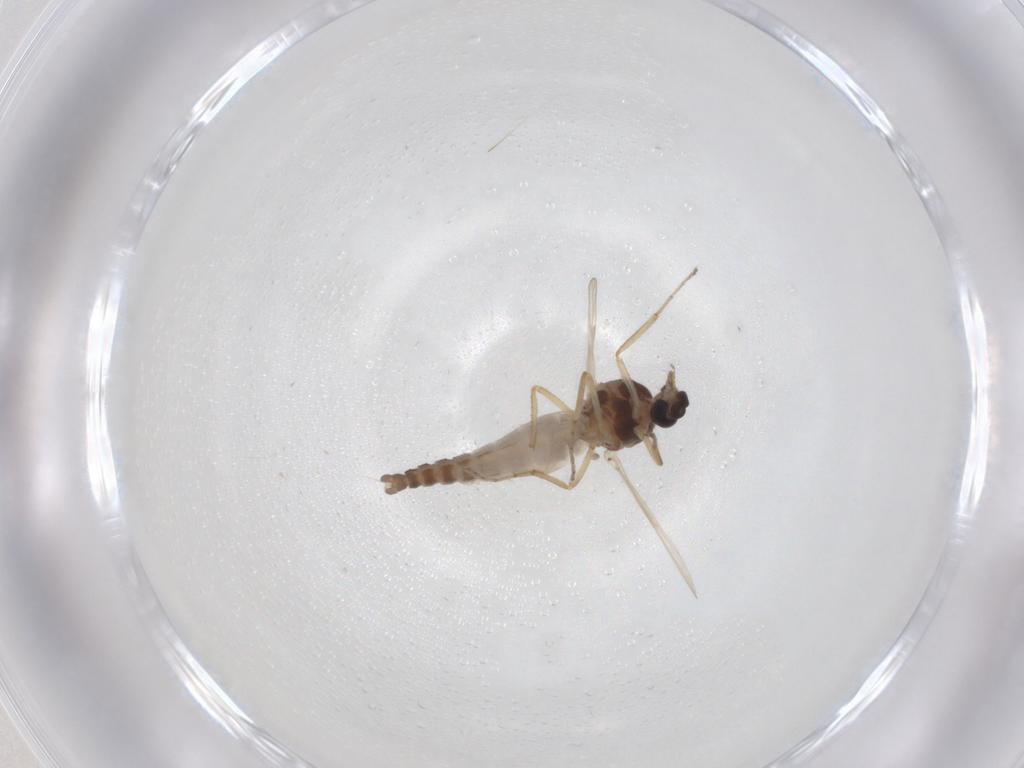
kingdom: Animalia
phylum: Arthropoda
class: Insecta
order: Diptera
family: Ceratopogonidae
